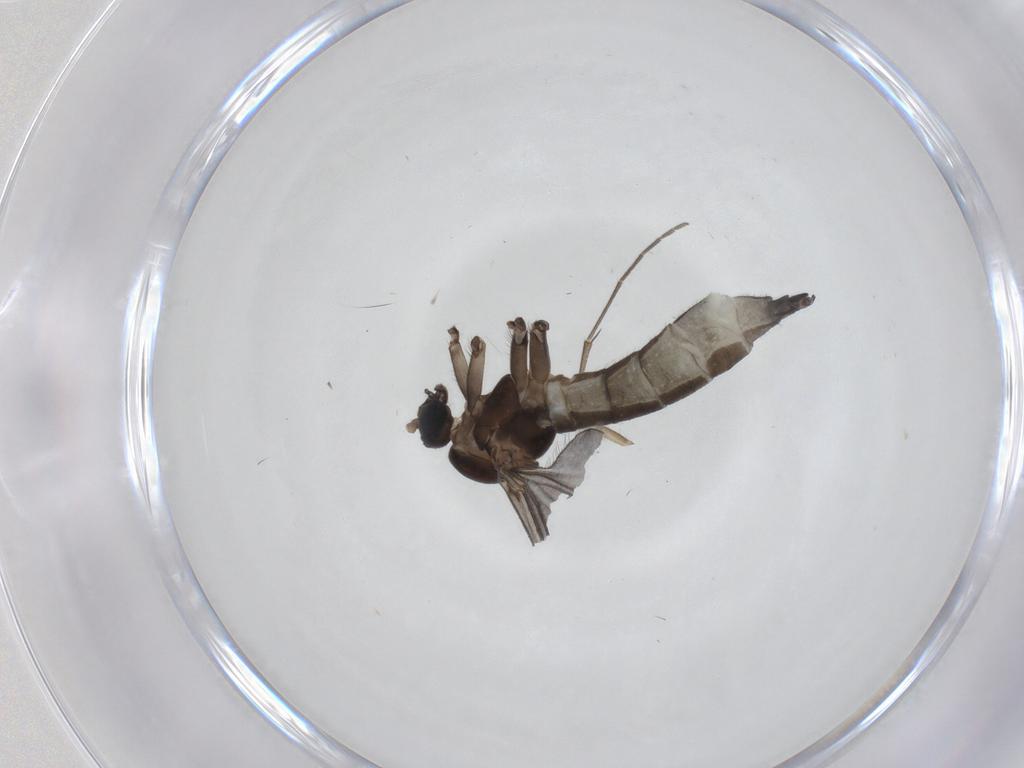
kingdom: Animalia
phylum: Arthropoda
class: Insecta
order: Diptera
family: Sciaridae
